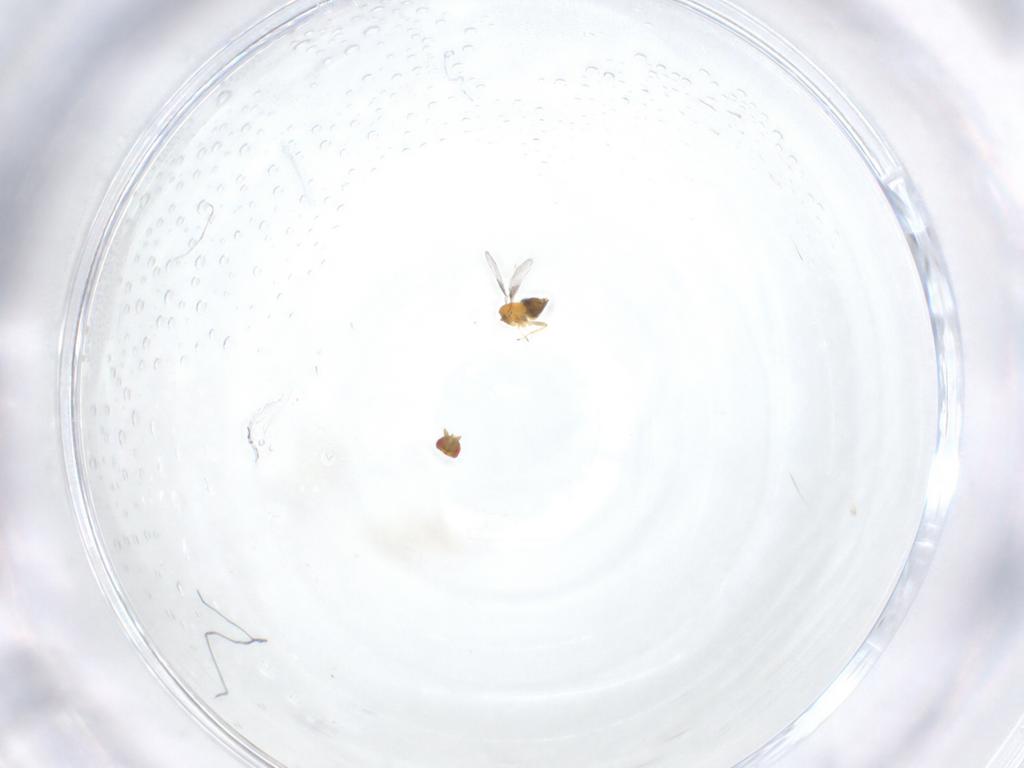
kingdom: Animalia
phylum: Arthropoda
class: Insecta
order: Hymenoptera
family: Trichogrammatidae
